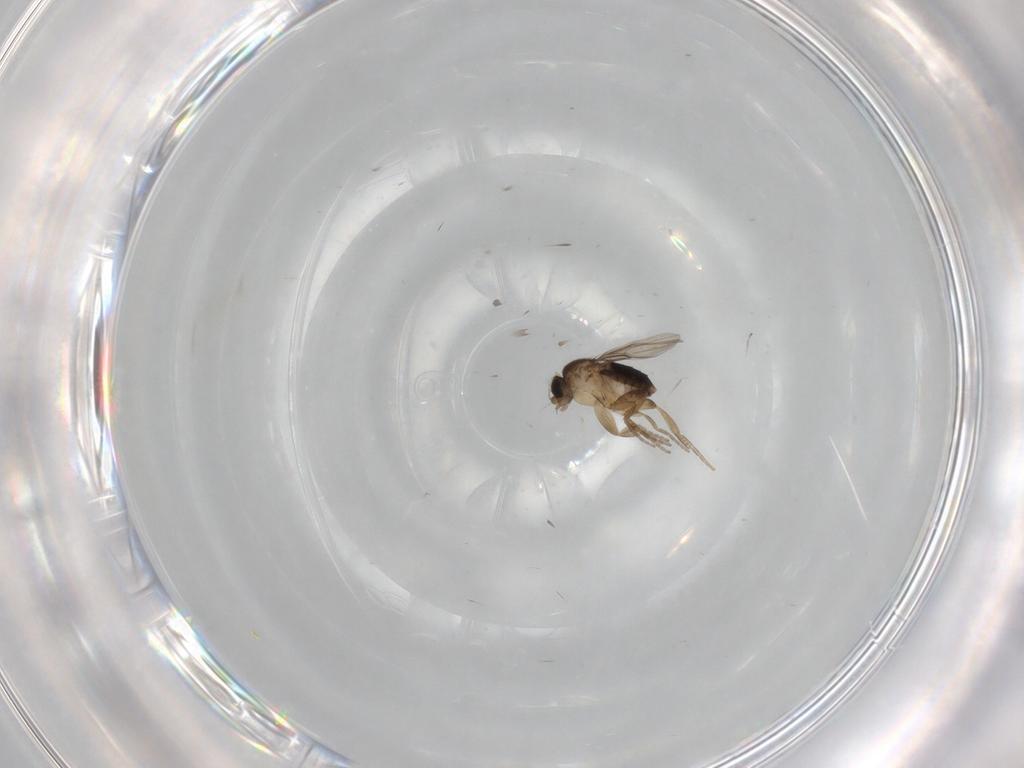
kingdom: Animalia
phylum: Arthropoda
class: Insecta
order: Diptera
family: Phoridae
